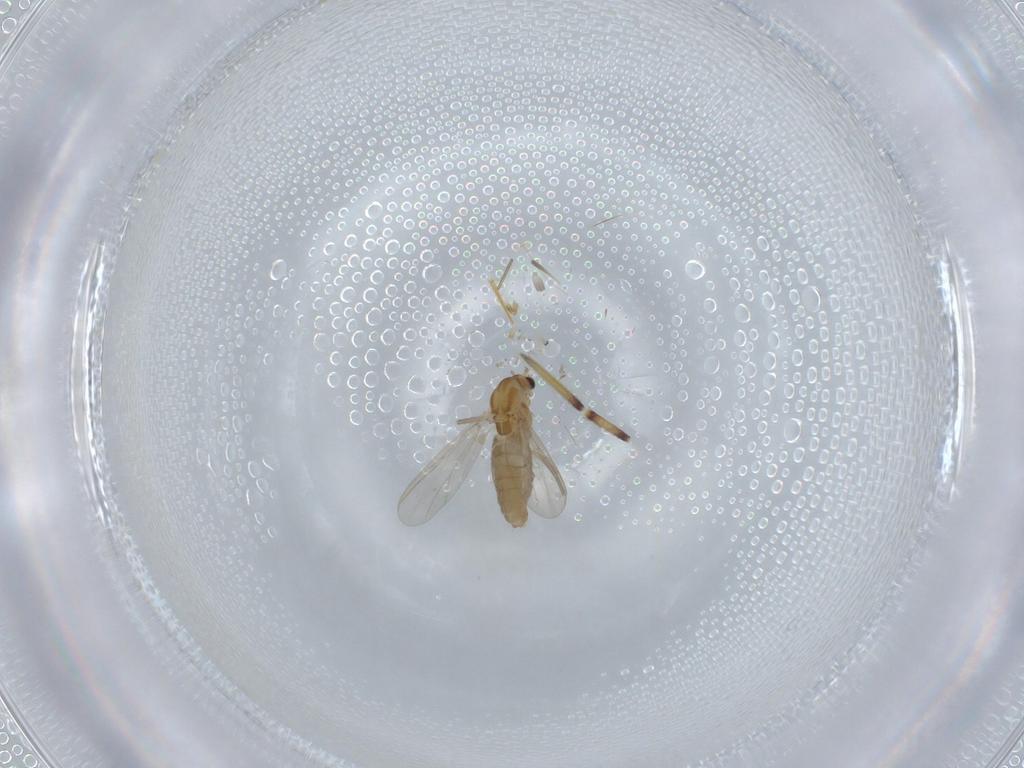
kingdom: Animalia
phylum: Arthropoda
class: Insecta
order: Diptera
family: Chironomidae
